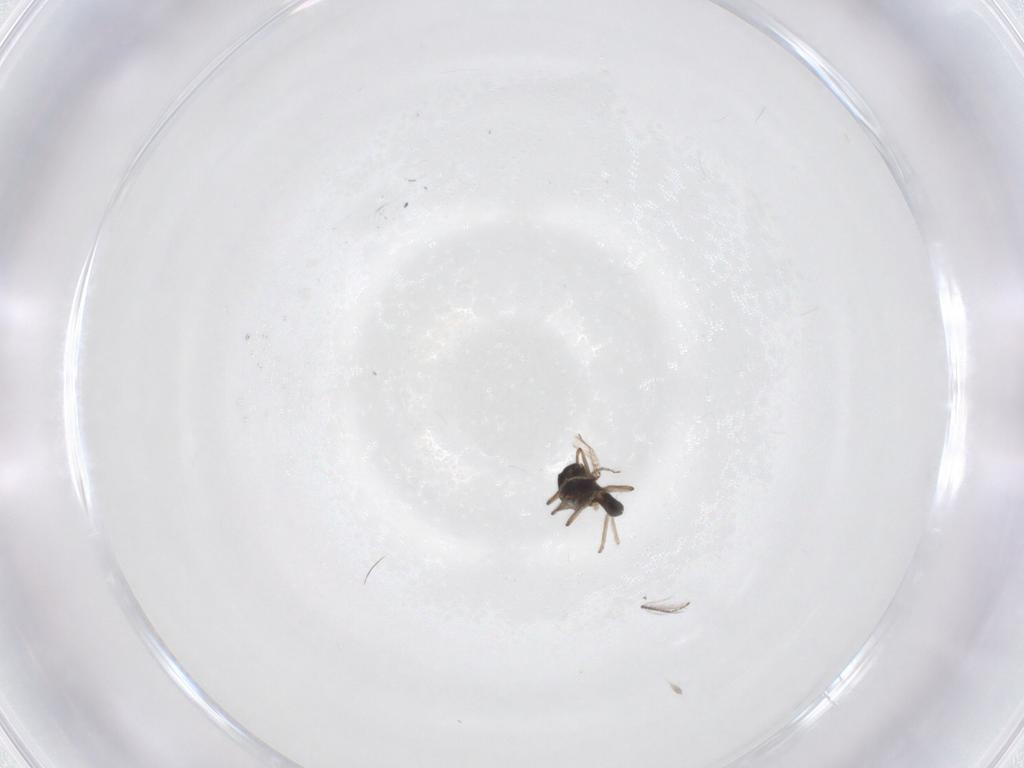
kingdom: Animalia
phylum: Arthropoda
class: Insecta
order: Diptera
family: Ceratopogonidae
